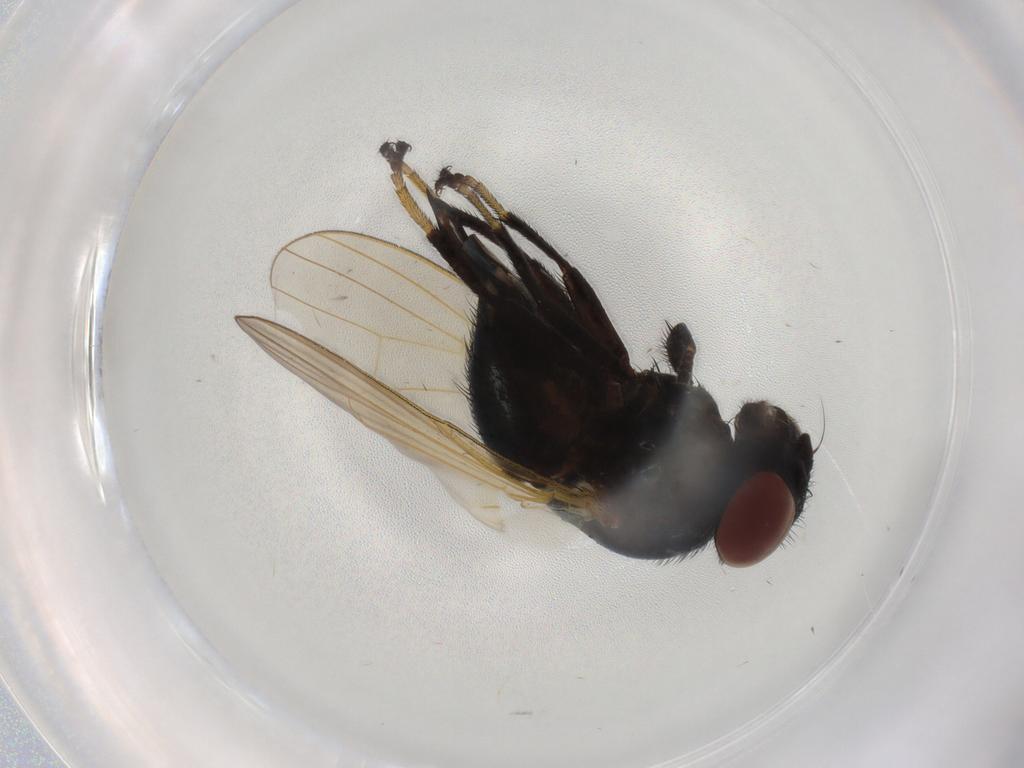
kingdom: Animalia
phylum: Arthropoda
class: Insecta
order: Diptera
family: Lonchaeidae
